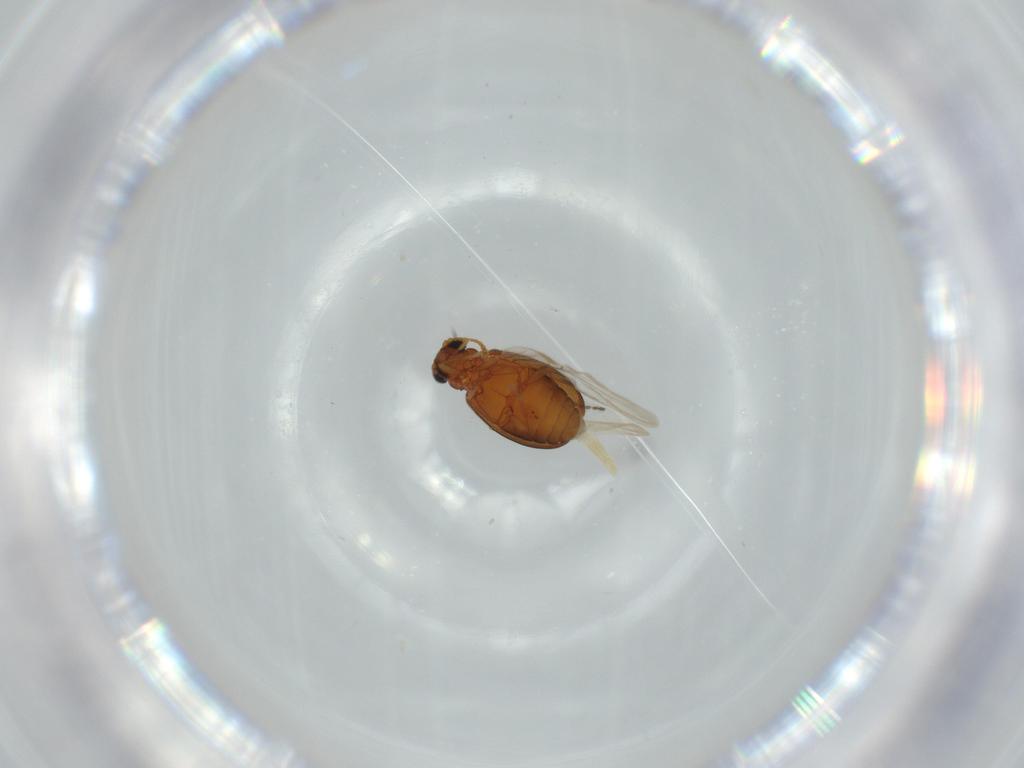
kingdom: Animalia
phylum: Arthropoda
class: Insecta
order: Coleoptera
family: Aderidae
